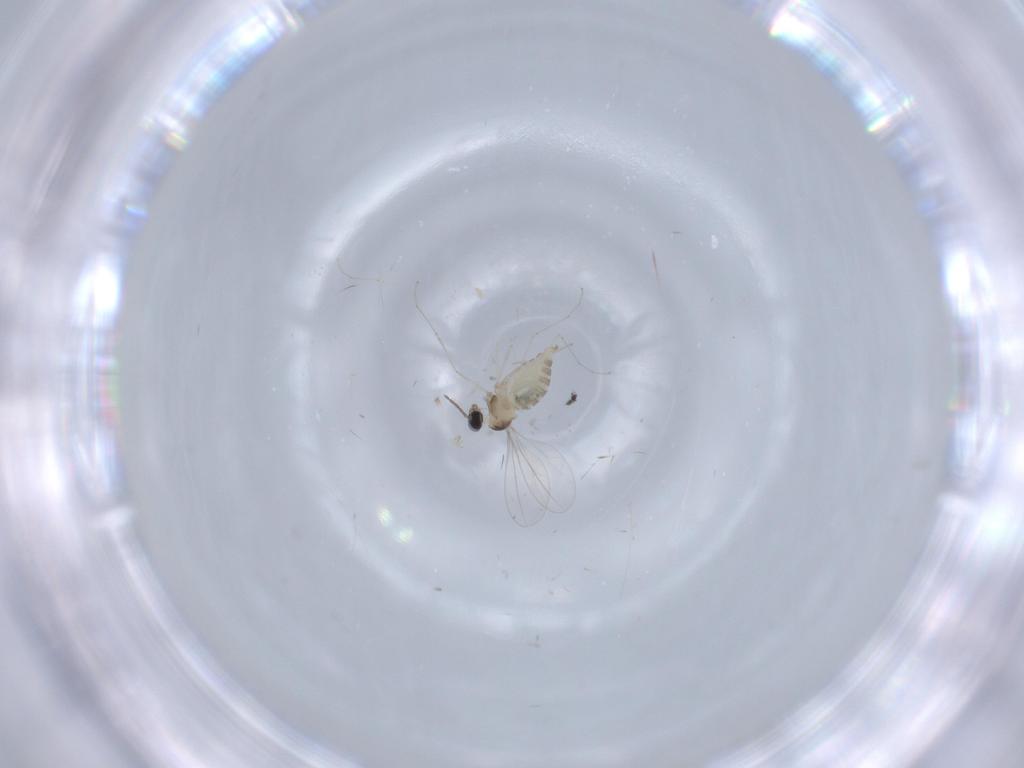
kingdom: Animalia
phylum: Arthropoda
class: Insecta
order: Diptera
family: Cecidomyiidae
